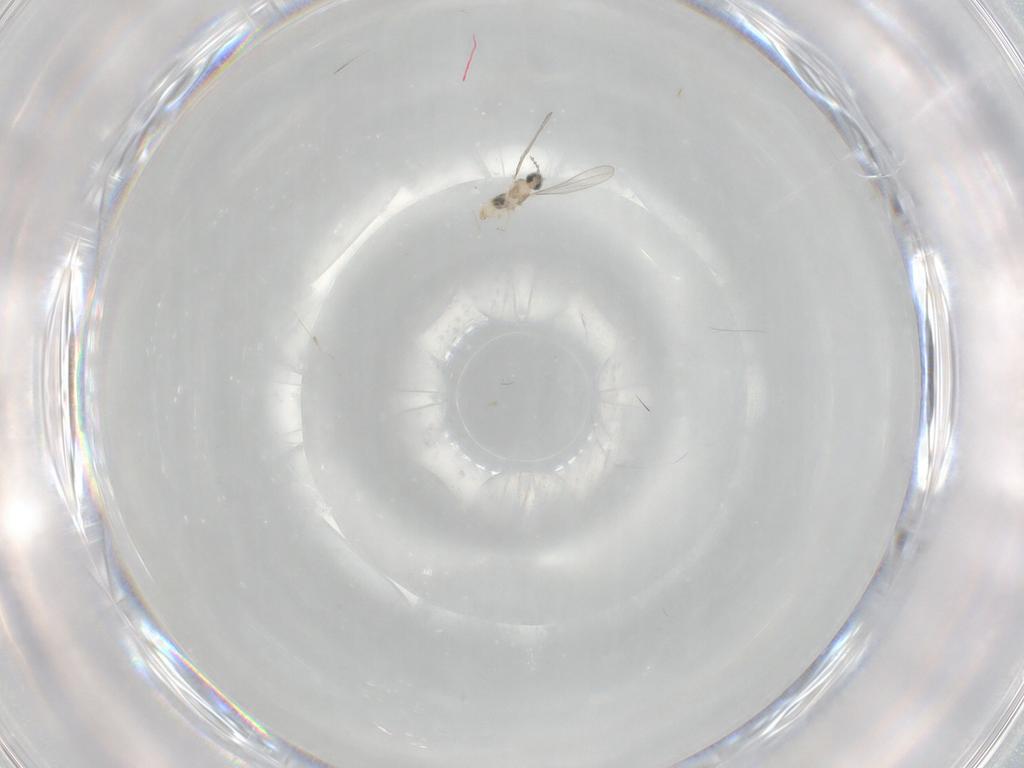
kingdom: Animalia
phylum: Arthropoda
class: Insecta
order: Diptera
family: Cecidomyiidae
